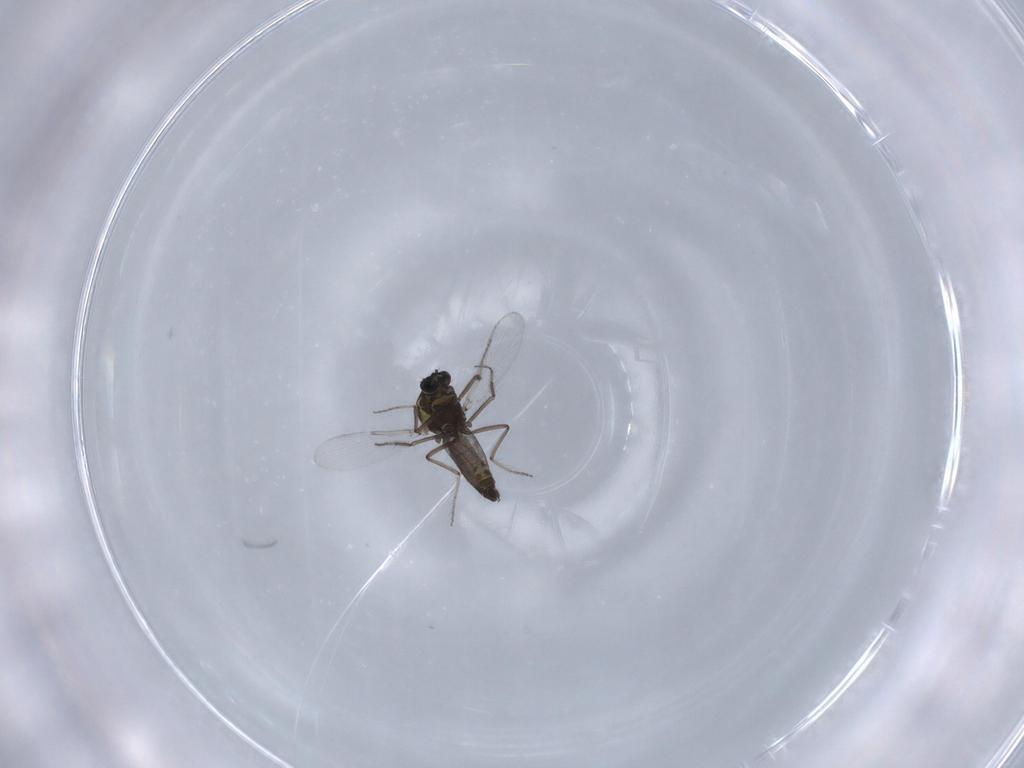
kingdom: Animalia
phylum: Arthropoda
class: Insecta
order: Diptera
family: Ceratopogonidae
